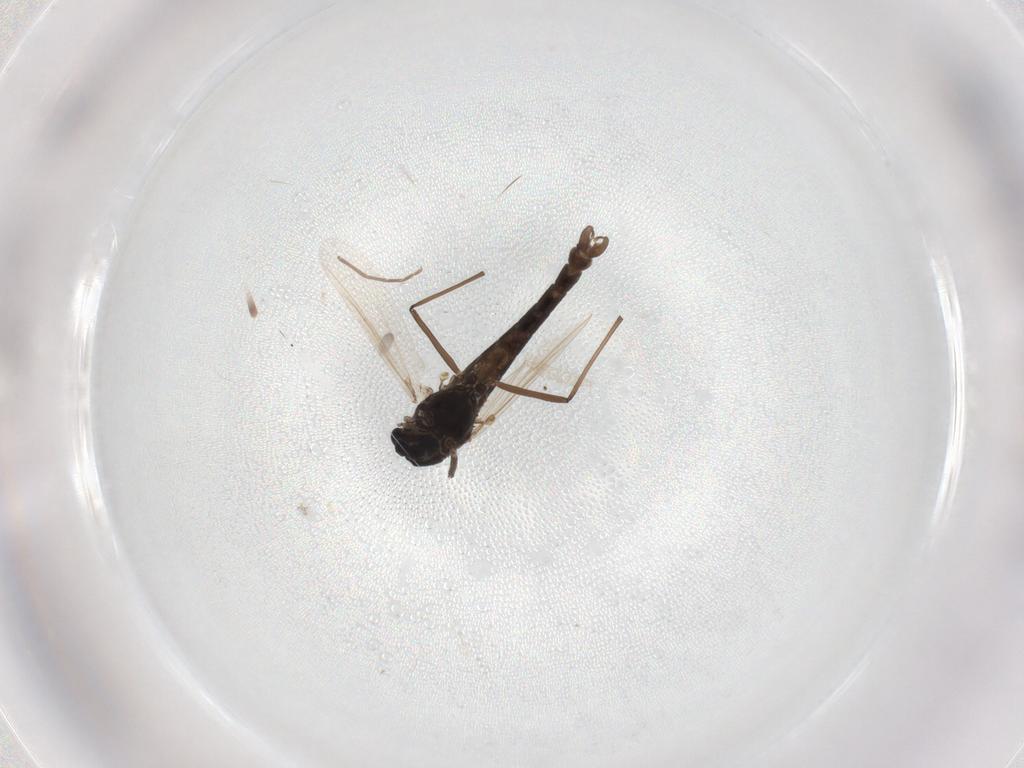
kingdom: Animalia
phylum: Arthropoda
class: Insecta
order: Diptera
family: Chironomidae
